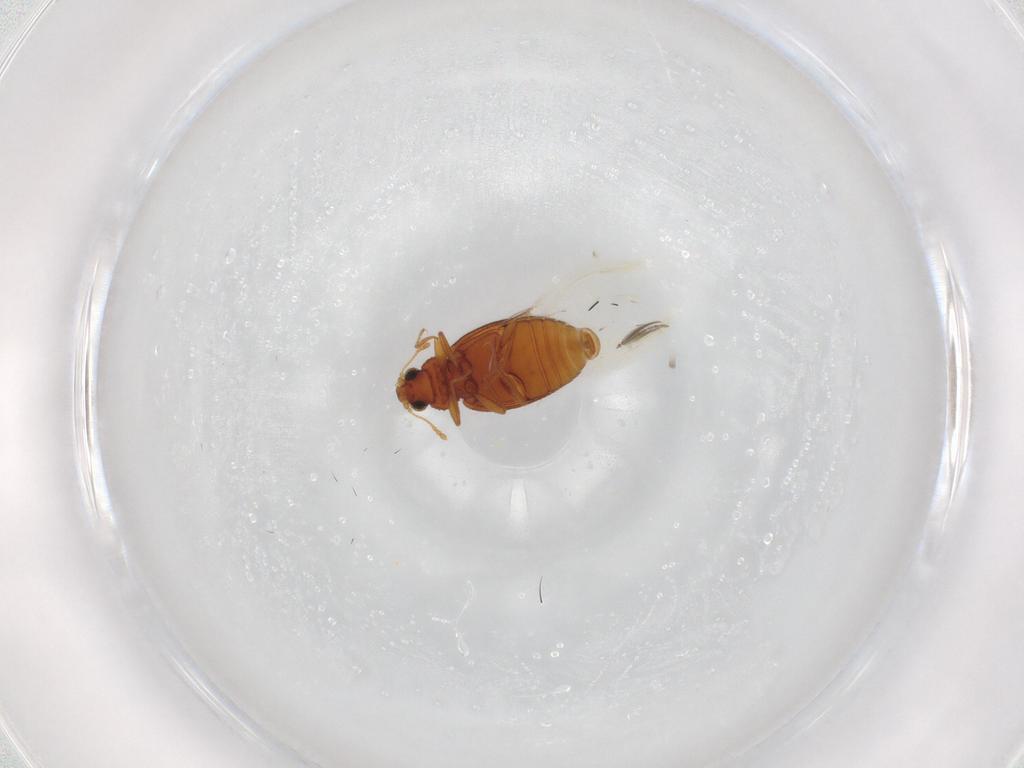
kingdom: Animalia
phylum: Arthropoda
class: Insecta
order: Coleoptera
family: Latridiidae
